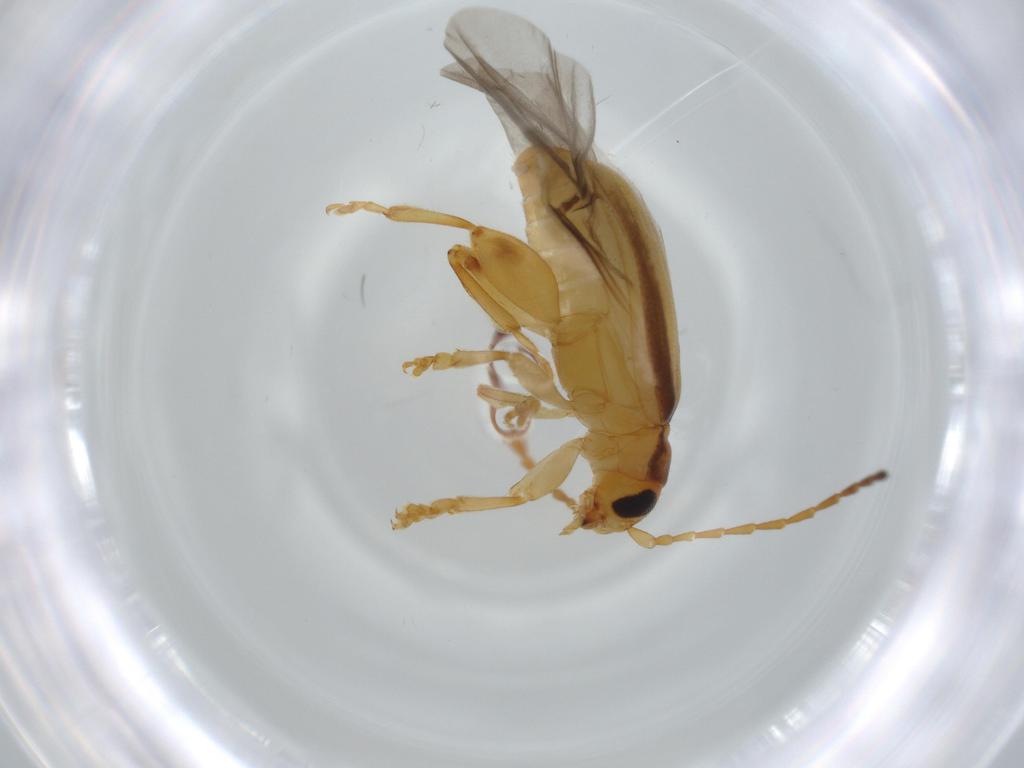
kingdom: Animalia
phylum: Arthropoda
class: Insecta
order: Coleoptera
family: Chrysomelidae
